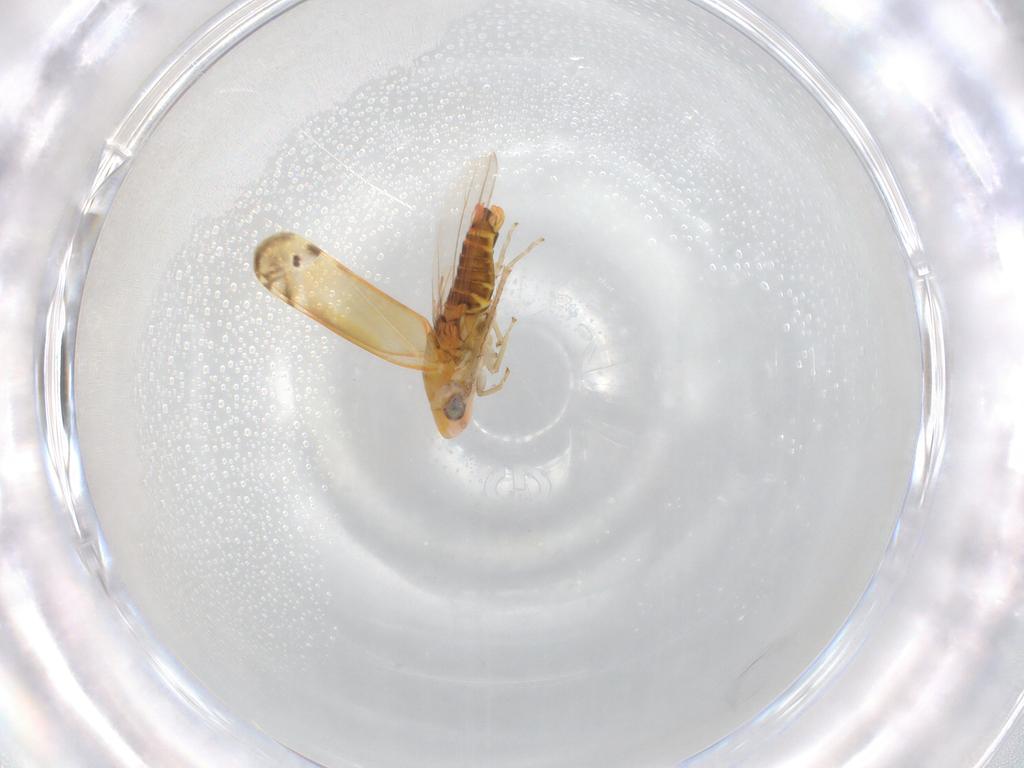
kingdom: Animalia
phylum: Arthropoda
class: Insecta
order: Hemiptera
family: Cicadellidae
